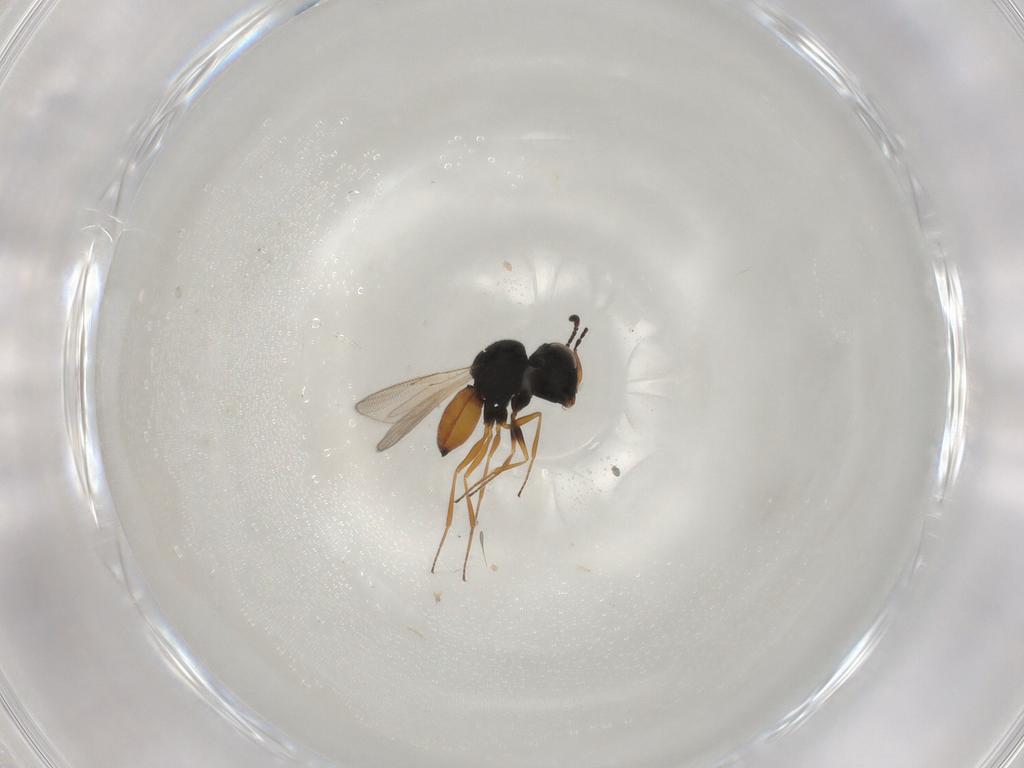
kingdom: Animalia
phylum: Arthropoda
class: Insecta
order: Hymenoptera
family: Scelionidae
